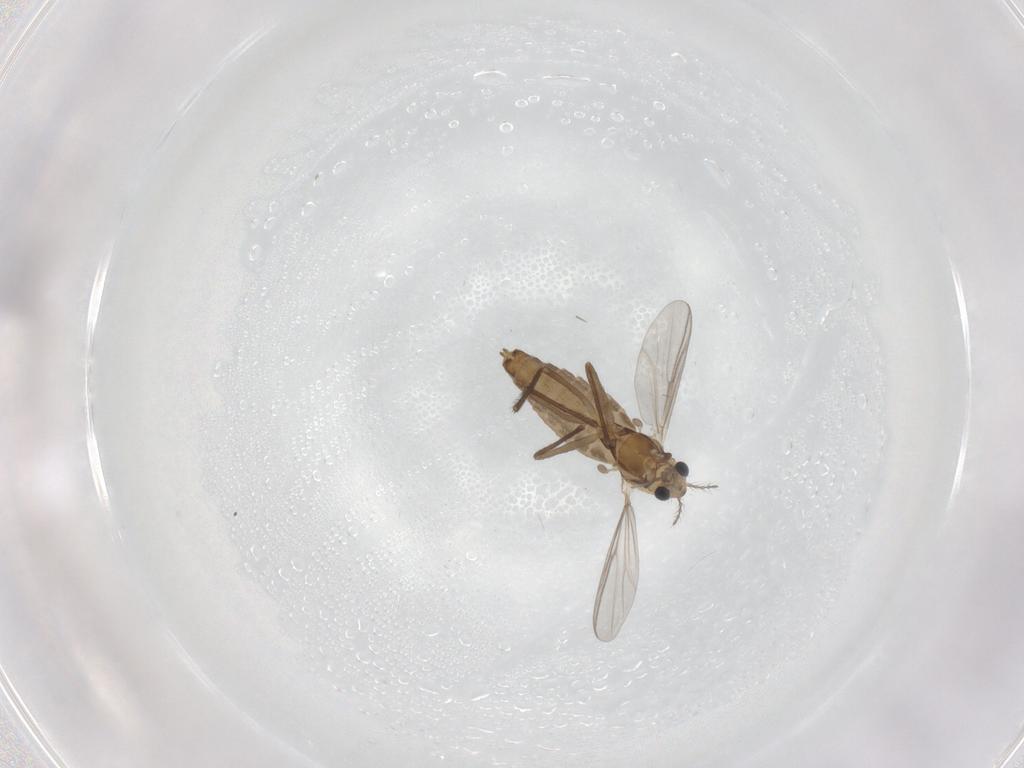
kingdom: Animalia
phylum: Arthropoda
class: Insecta
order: Diptera
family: Chironomidae
